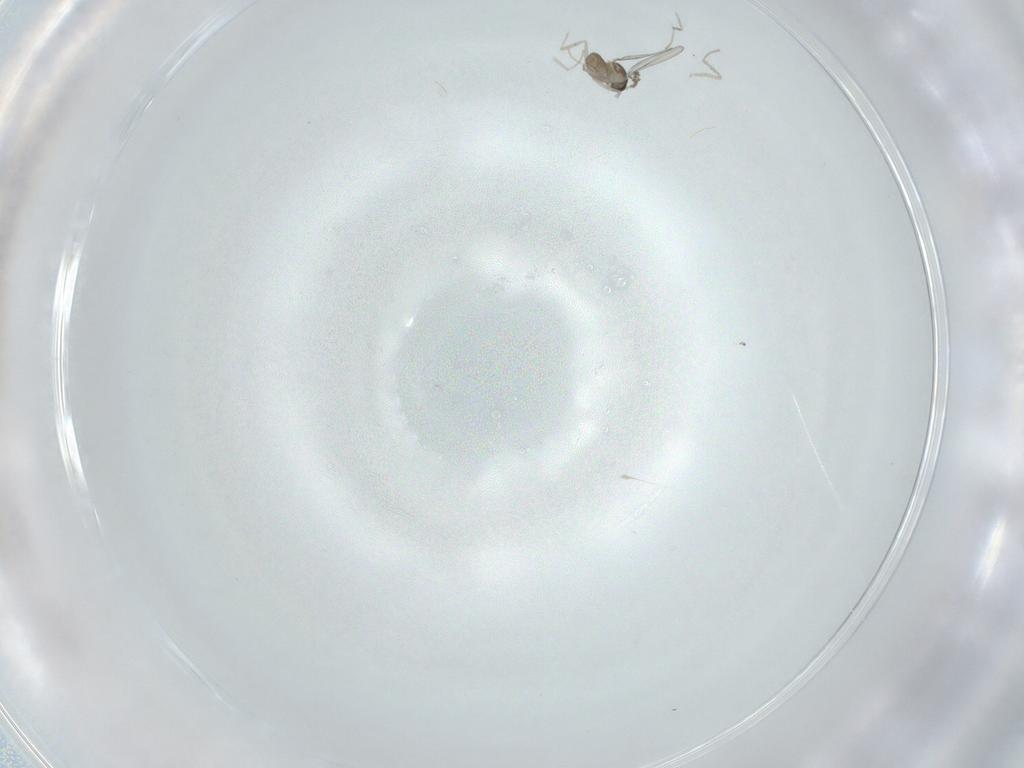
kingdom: Animalia
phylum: Arthropoda
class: Insecta
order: Diptera
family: Cecidomyiidae
